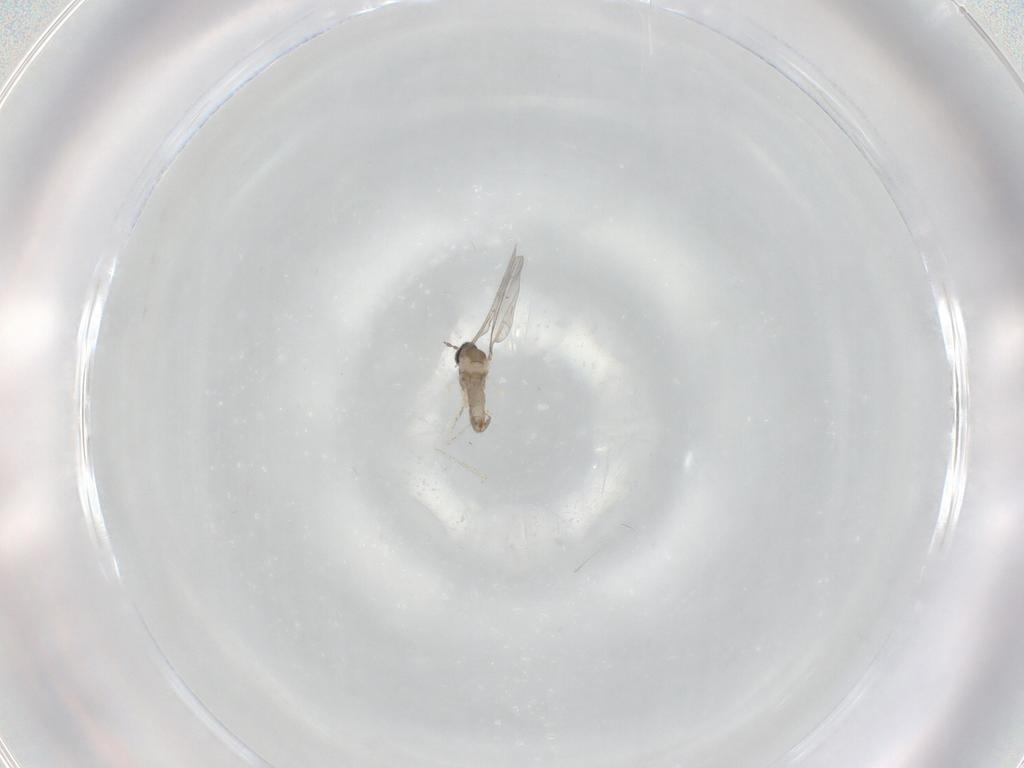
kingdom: Animalia
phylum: Arthropoda
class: Insecta
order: Diptera
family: Cecidomyiidae
